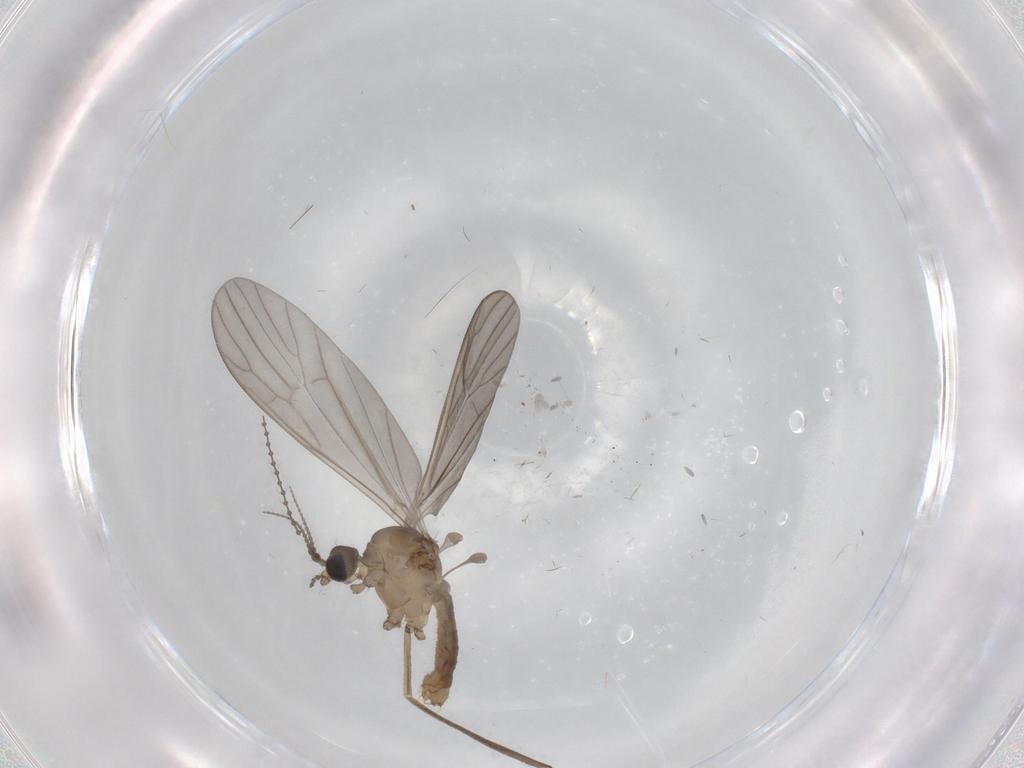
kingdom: Animalia
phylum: Arthropoda
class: Insecta
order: Diptera
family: Limoniidae
